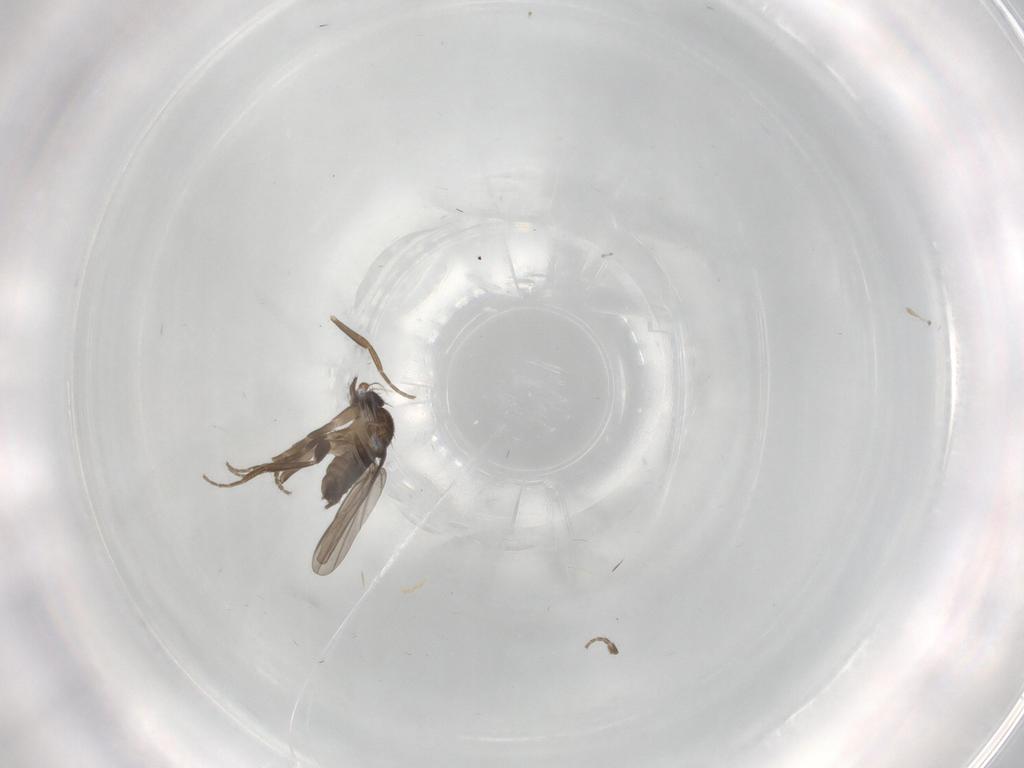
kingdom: Animalia
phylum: Arthropoda
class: Insecta
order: Diptera
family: Phoridae
